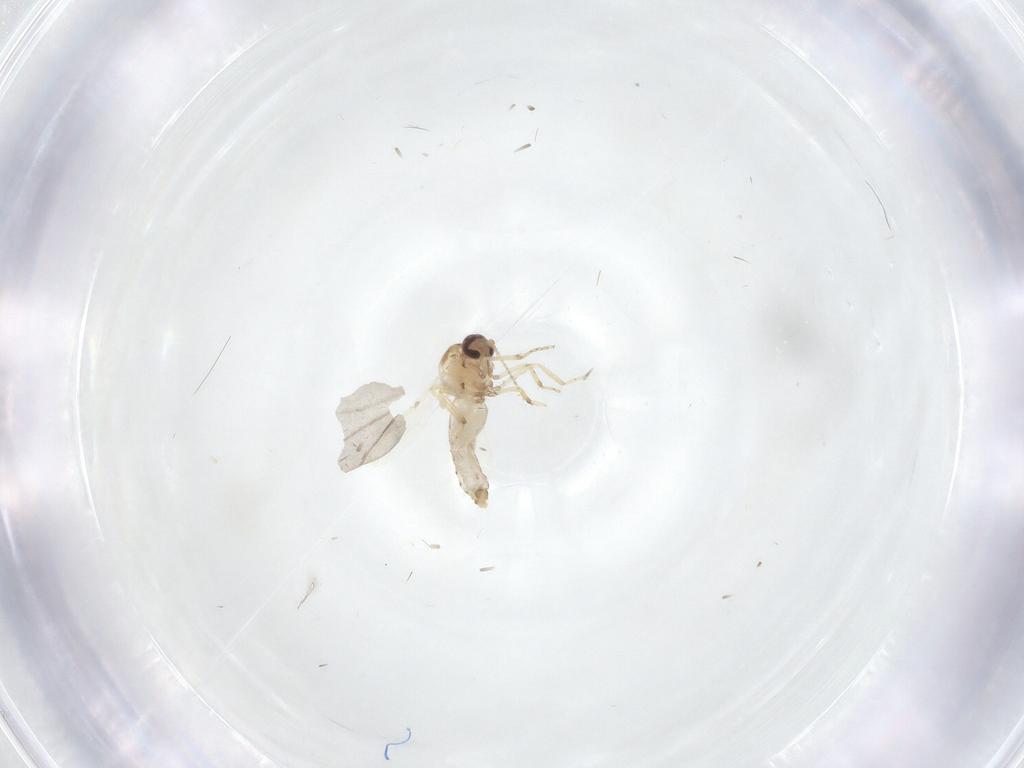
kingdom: Animalia
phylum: Arthropoda
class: Insecta
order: Diptera
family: Ceratopogonidae
